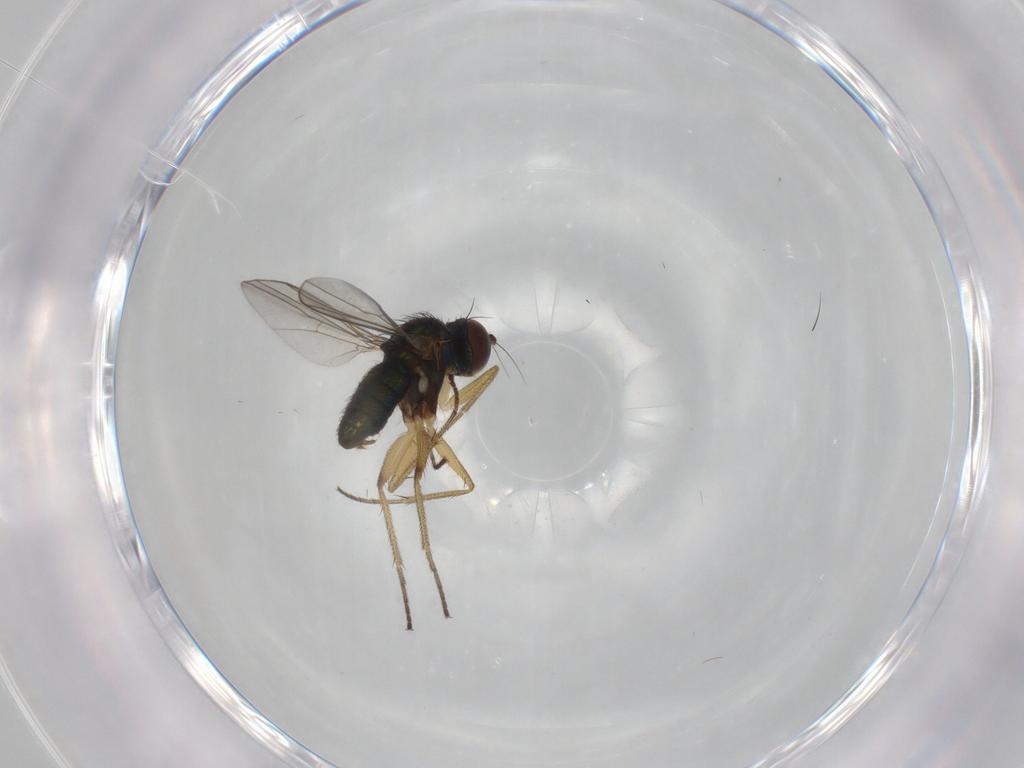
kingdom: Animalia
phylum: Arthropoda
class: Insecta
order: Diptera
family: Dolichopodidae
